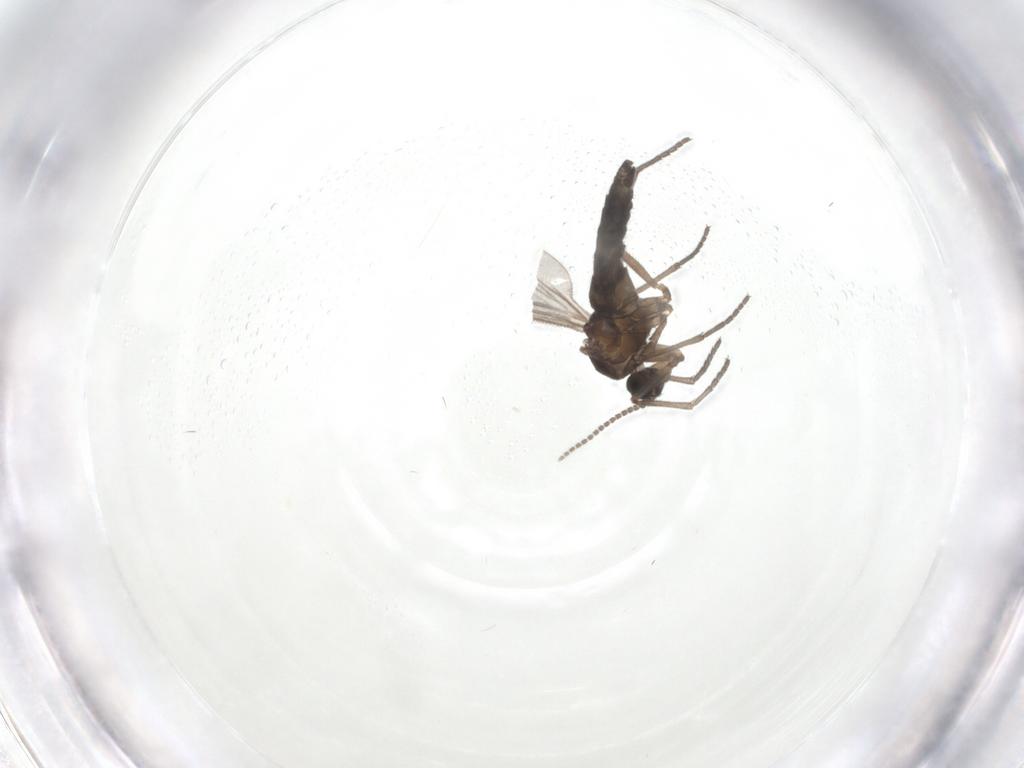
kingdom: Animalia
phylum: Arthropoda
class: Insecta
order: Diptera
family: Sciaridae
